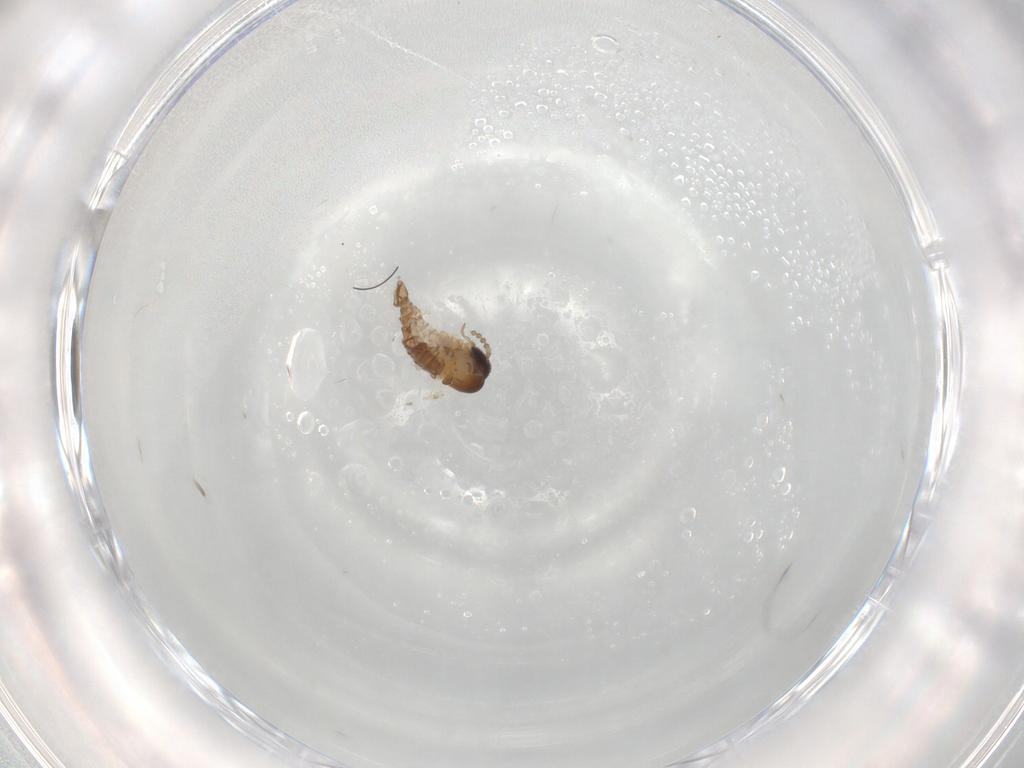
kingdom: Animalia
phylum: Arthropoda
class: Insecta
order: Diptera
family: Psychodidae
